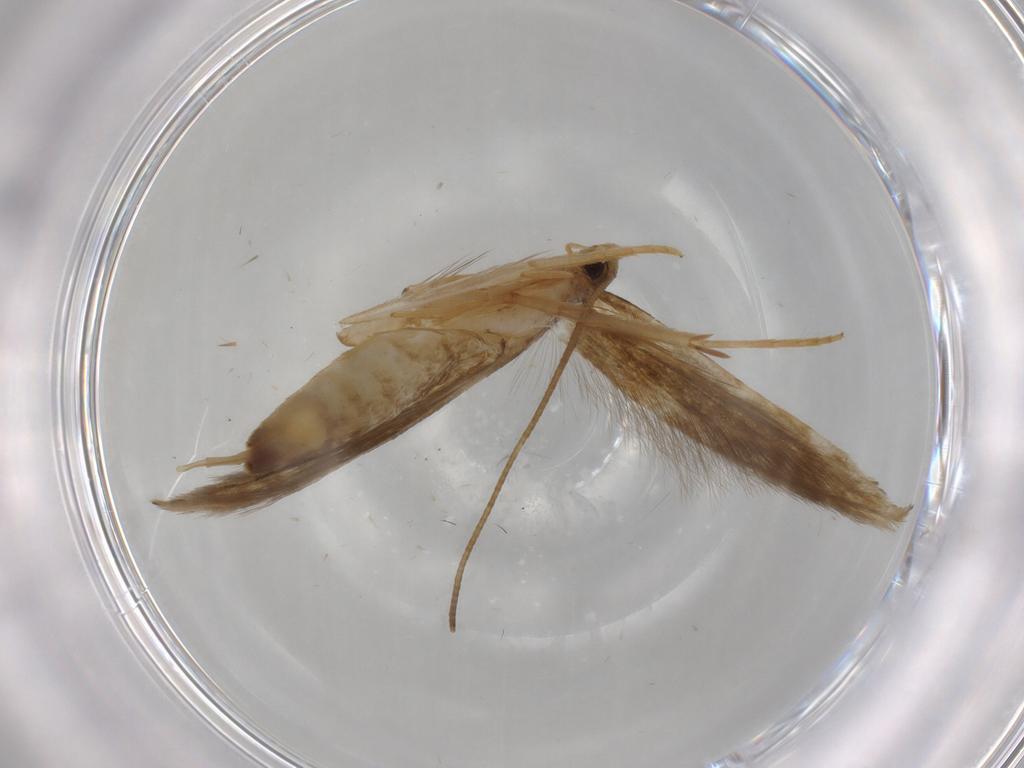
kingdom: Animalia
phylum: Arthropoda
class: Insecta
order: Lepidoptera
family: Tineidae
